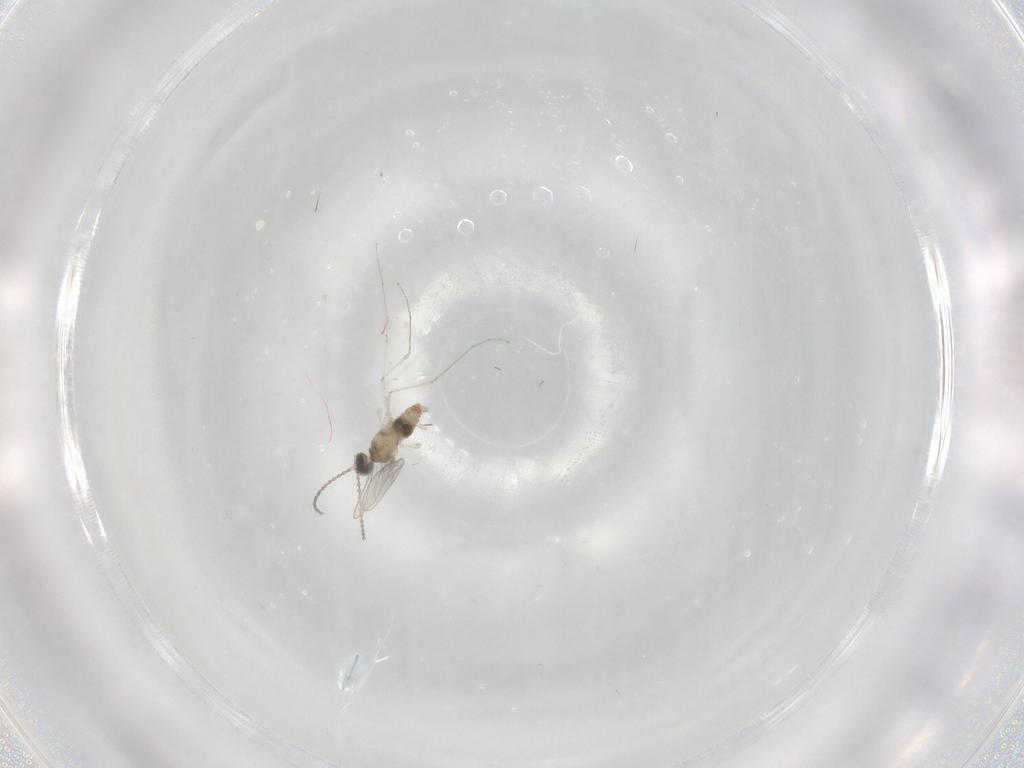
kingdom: Animalia
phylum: Arthropoda
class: Insecta
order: Diptera
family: Cecidomyiidae
